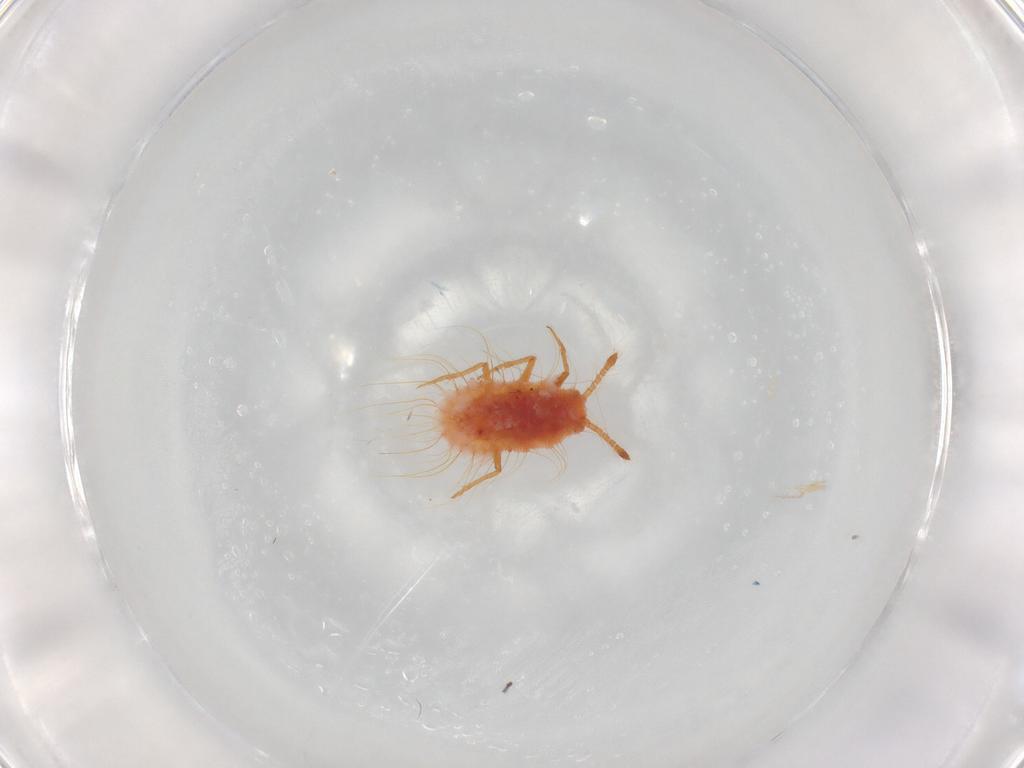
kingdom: Animalia
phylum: Arthropoda
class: Insecta
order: Hemiptera
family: Coccoidea_incertae_sedis
